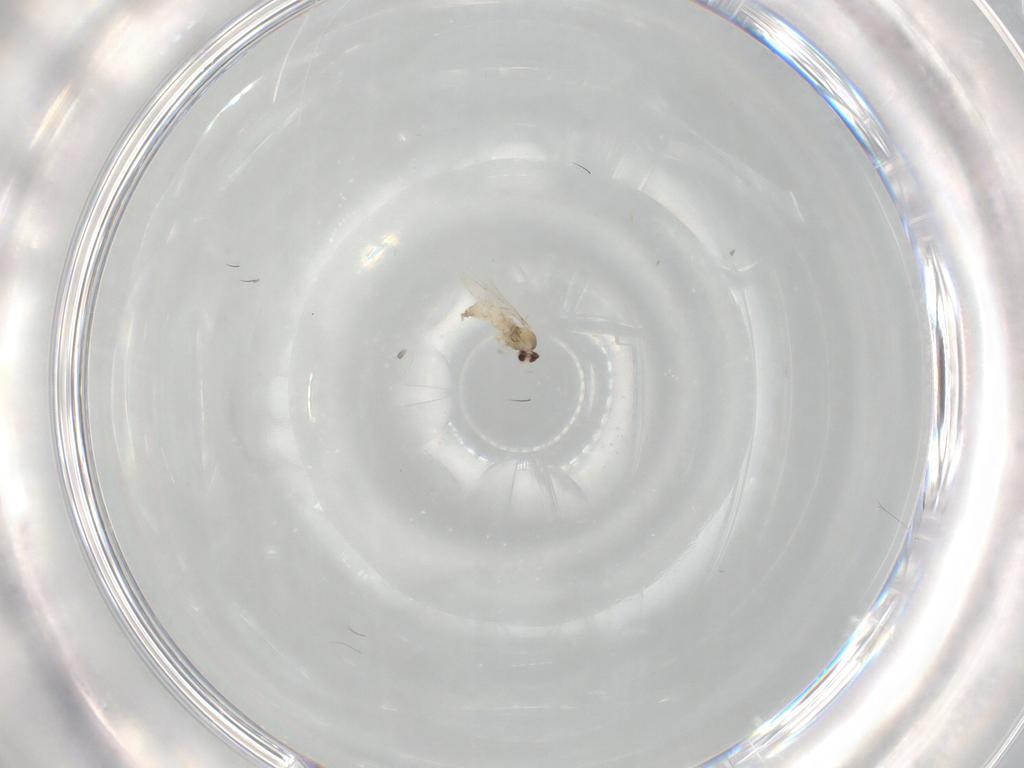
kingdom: Animalia
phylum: Arthropoda
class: Insecta
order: Diptera
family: Cecidomyiidae
